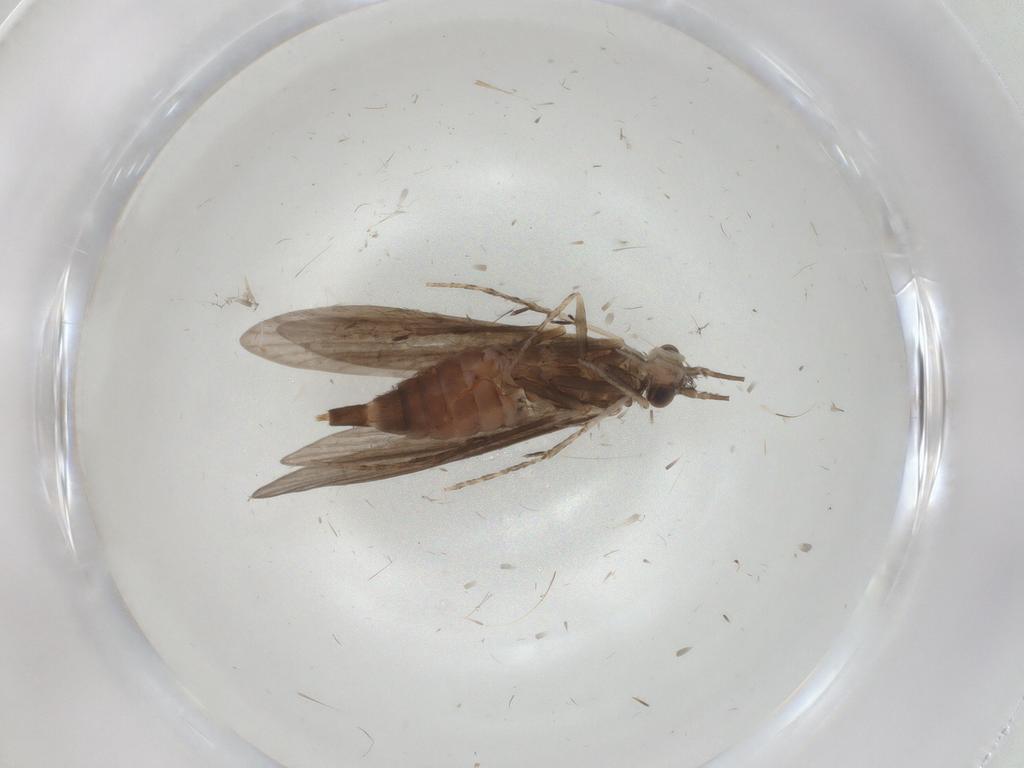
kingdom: Animalia
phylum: Arthropoda
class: Insecta
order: Trichoptera
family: Xiphocentronidae
